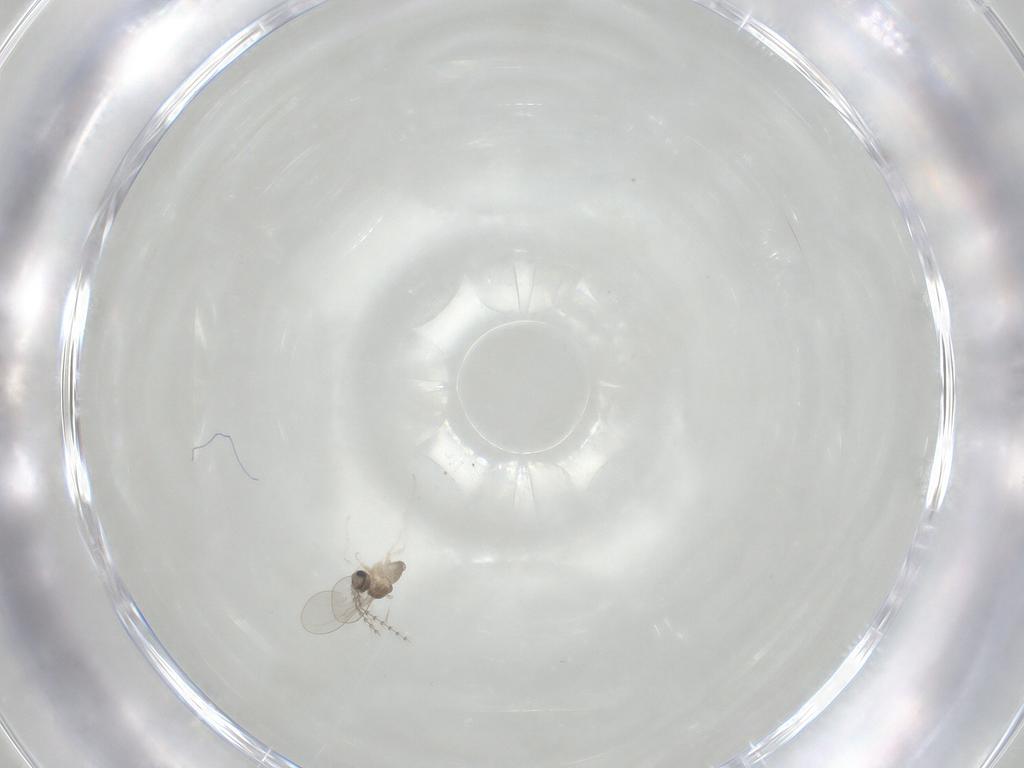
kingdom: Animalia
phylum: Arthropoda
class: Insecta
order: Diptera
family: Cecidomyiidae
